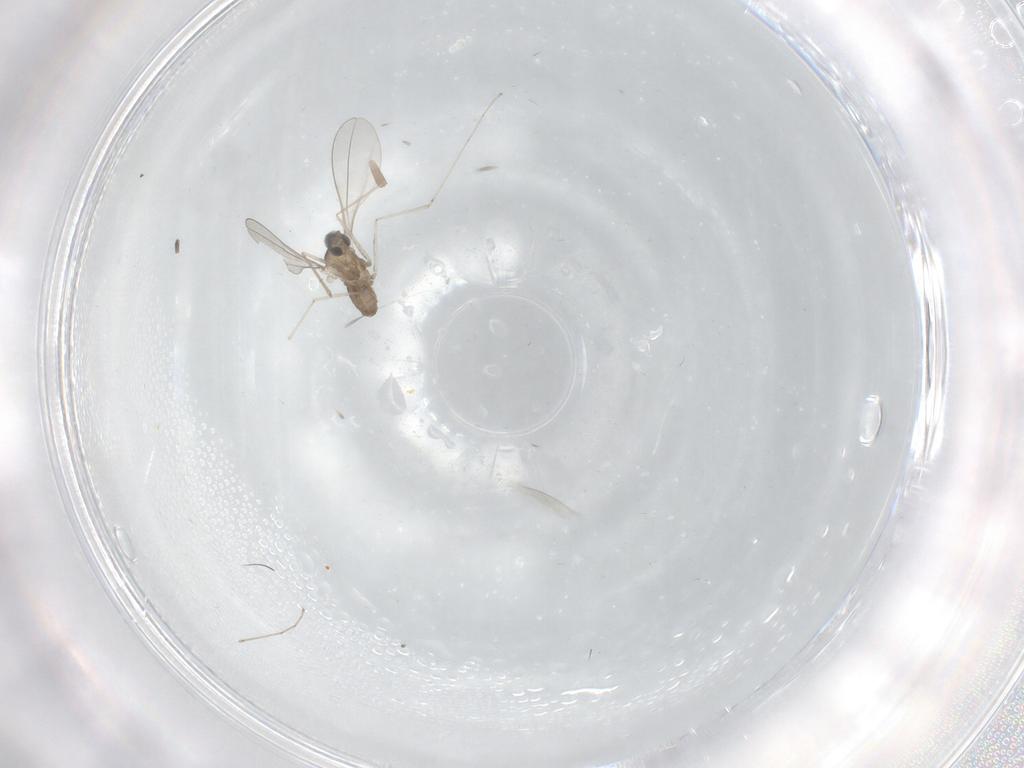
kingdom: Animalia
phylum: Arthropoda
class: Insecta
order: Diptera
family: Cecidomyiidae
